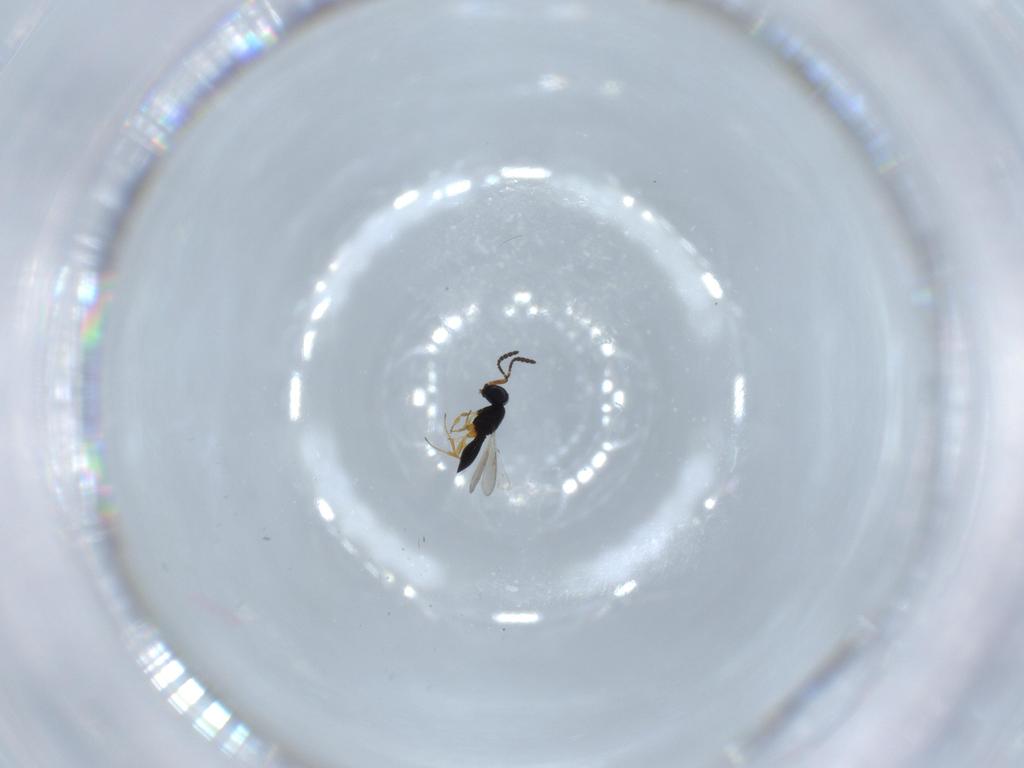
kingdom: Animalia
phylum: Arthropoda
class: Insecta
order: Hymenoptera
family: Scelionidae
